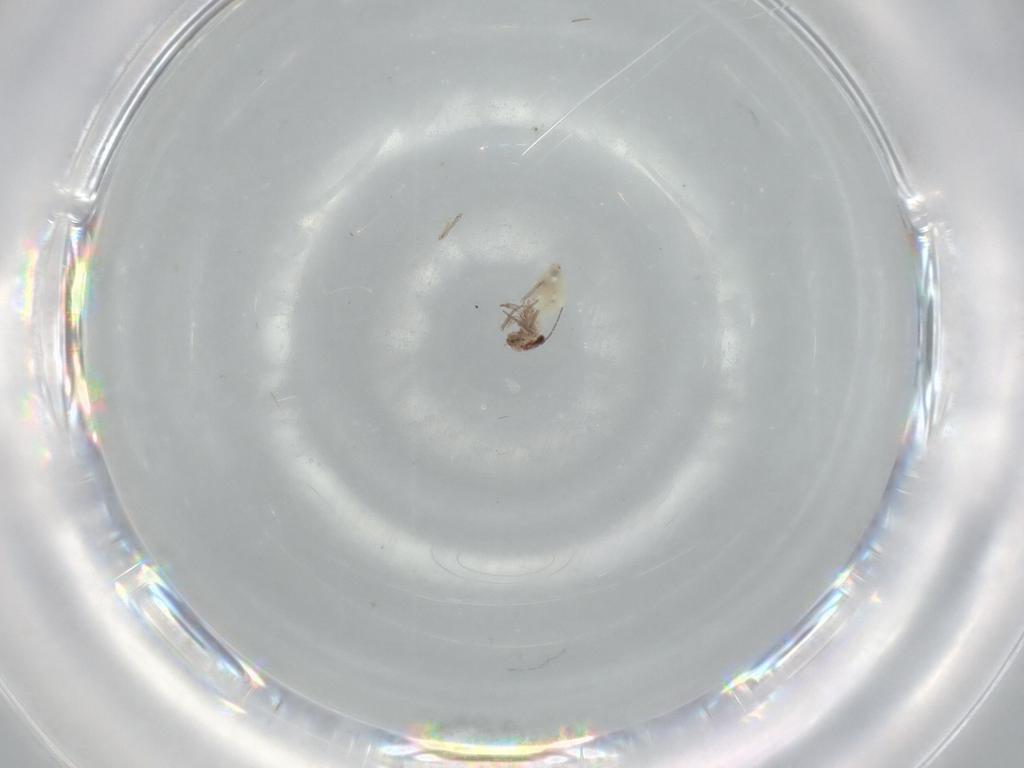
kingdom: Animalia
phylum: Arthropoda
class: Insecta
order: Psocodea
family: Lepidopsocidae
